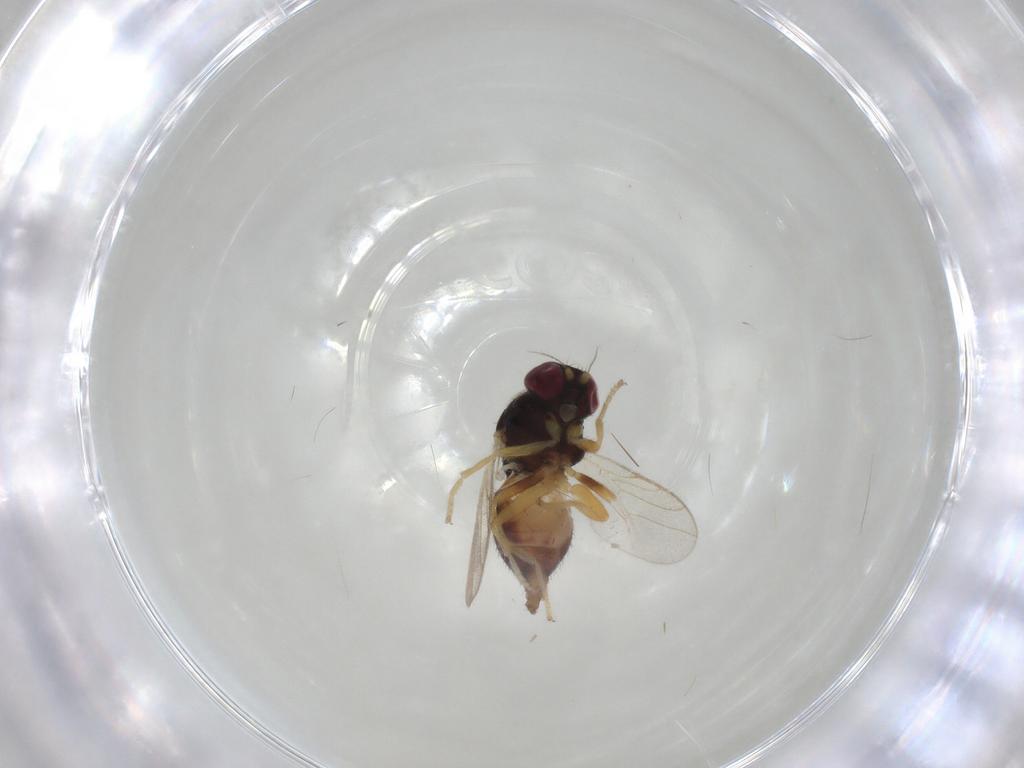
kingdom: Animalia
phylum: Arthropoda
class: Insecta
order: Diptera
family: Chloropidae
